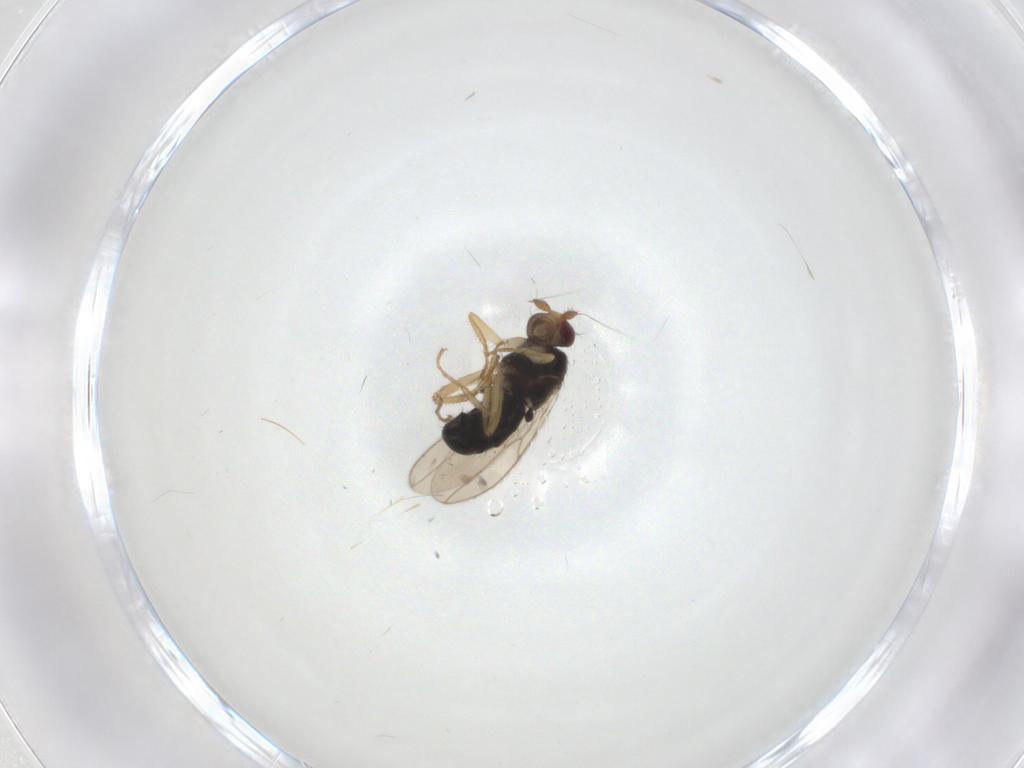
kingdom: Animalia
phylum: Arthropoda
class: Insecta
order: Diptera
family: Sphaeroceridae
